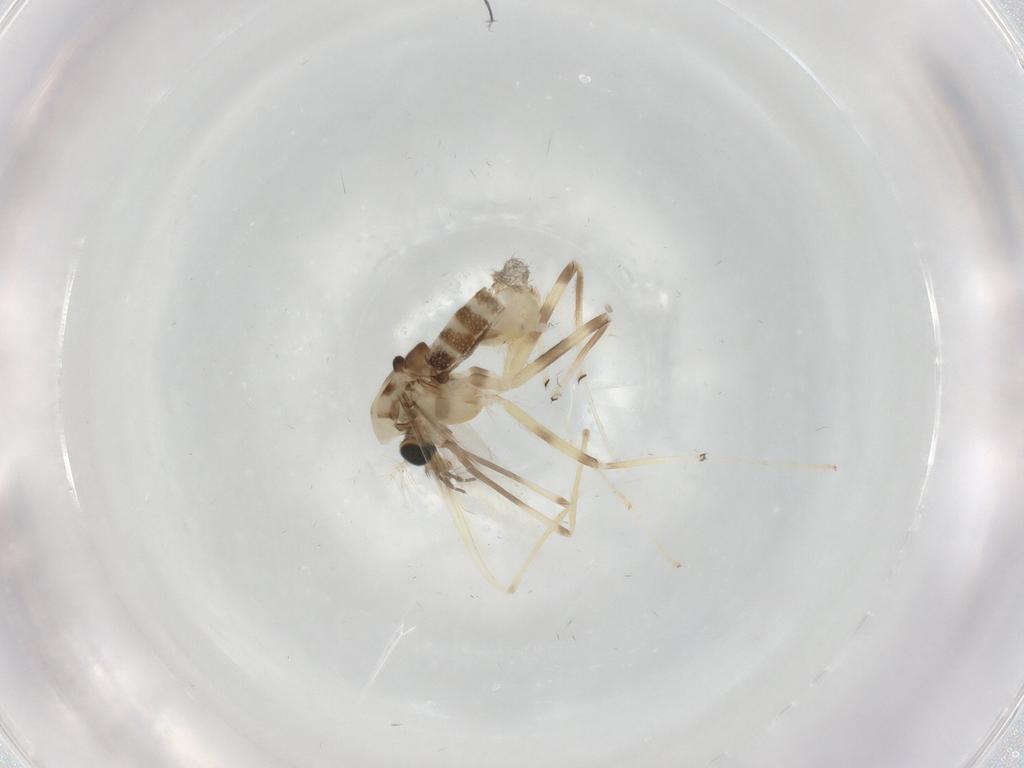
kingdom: Animalia
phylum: Arthropoda
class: Insecta
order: Diptera
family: Chironomidae
